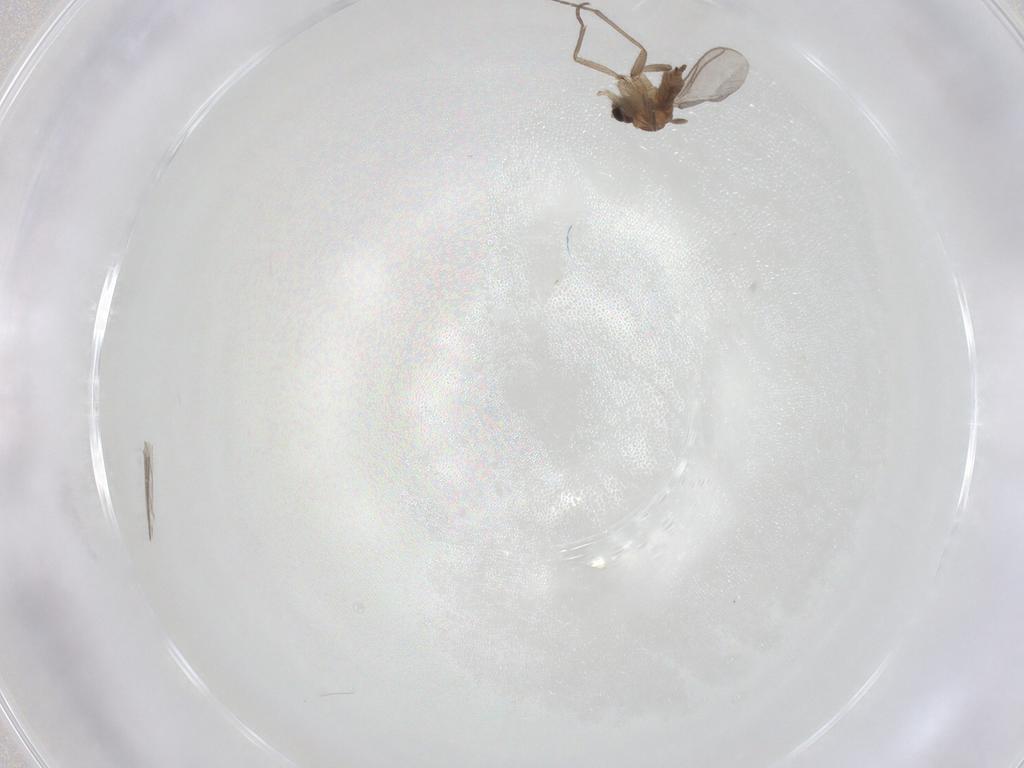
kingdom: Animalia
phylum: Arthropoda
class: Insecta
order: Diptera
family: Sciaridae
